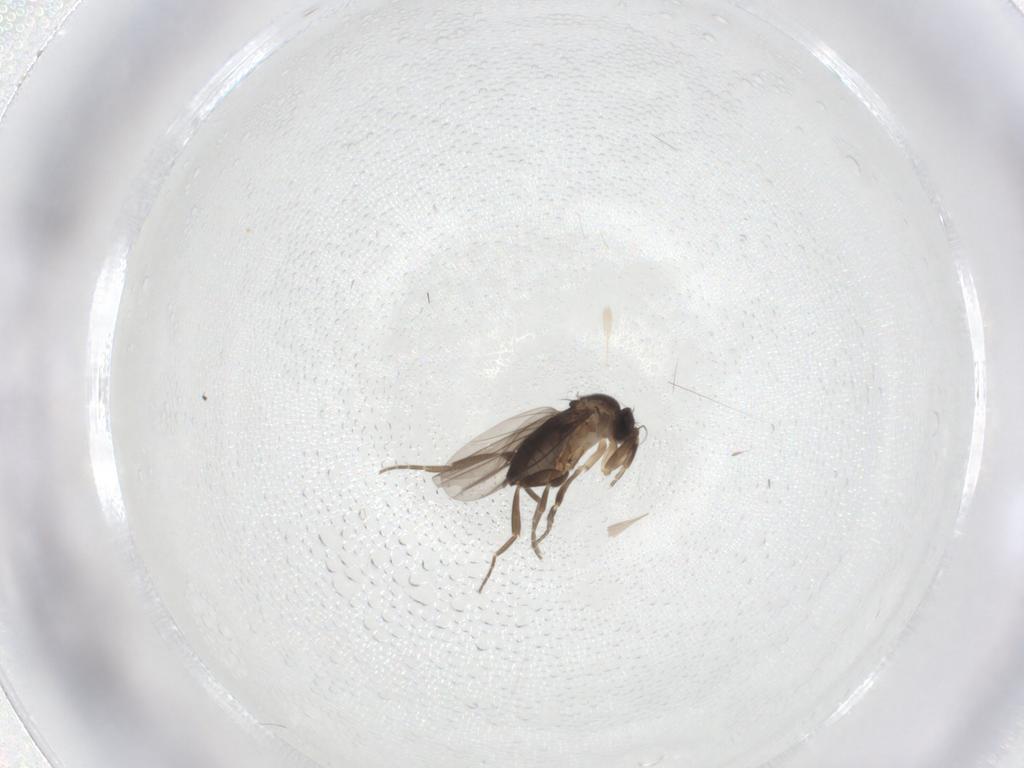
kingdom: Animalia
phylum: Arthropoda
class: Insecta
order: Diptera
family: Phoridae
